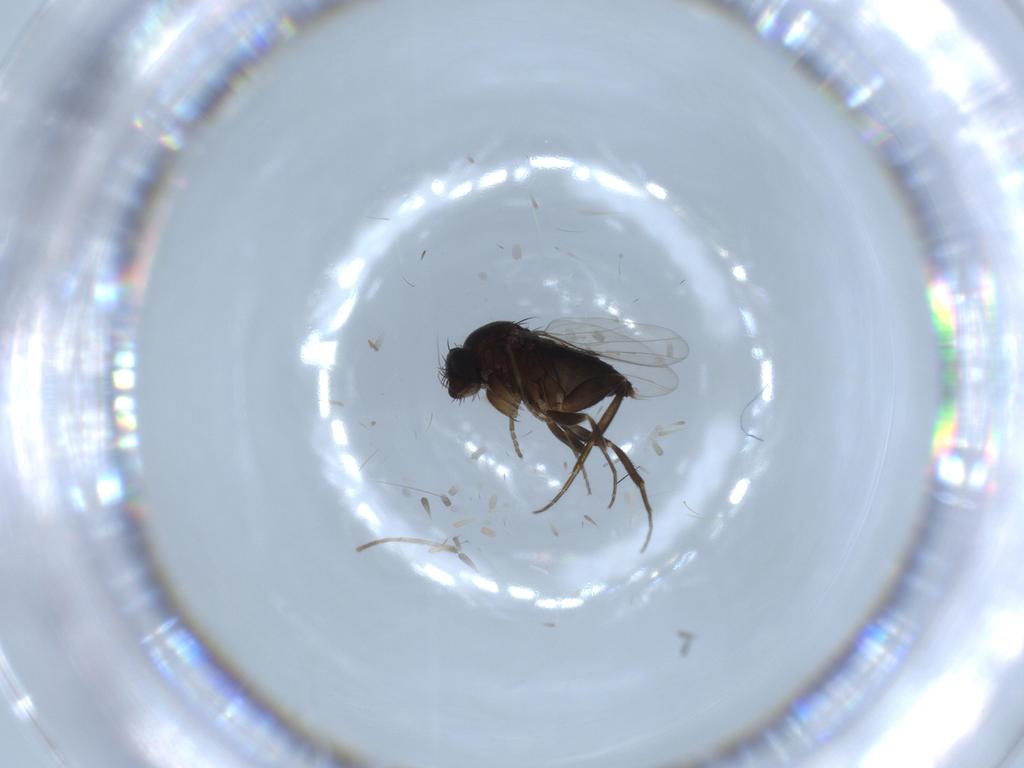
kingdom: Animalia
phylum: Arthropoda
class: Insecta
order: Diptera
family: Phoridae
